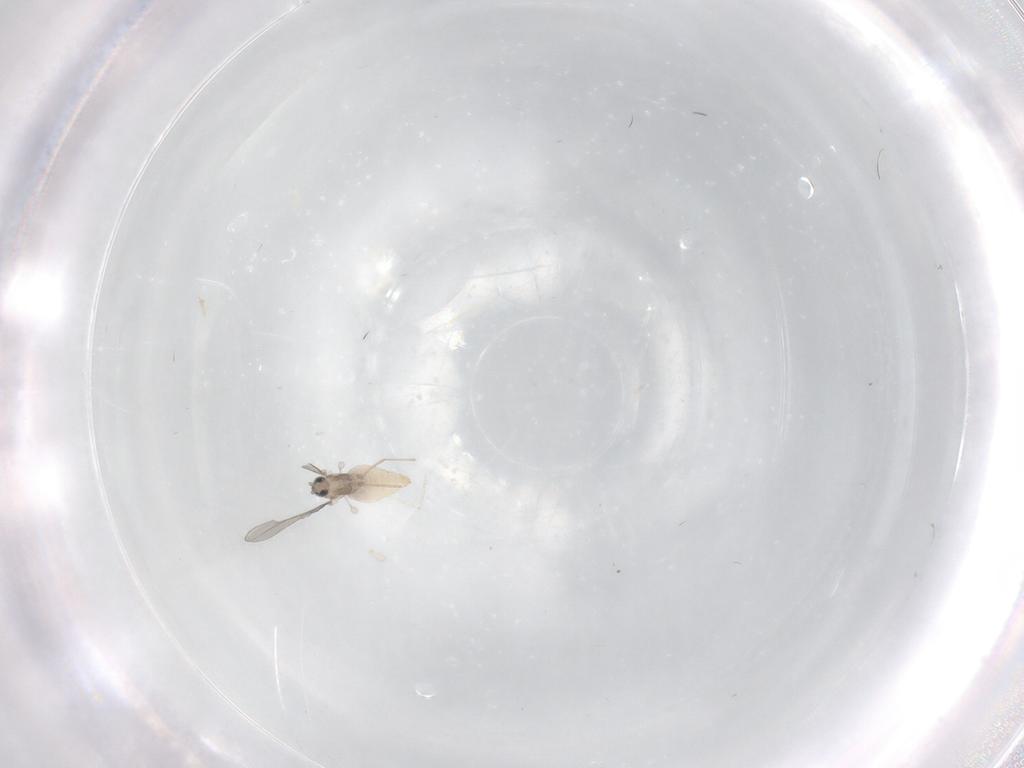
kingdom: Animalia
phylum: Arthropoda
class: Insecta
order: Diptera
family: Cecidomyiidae
